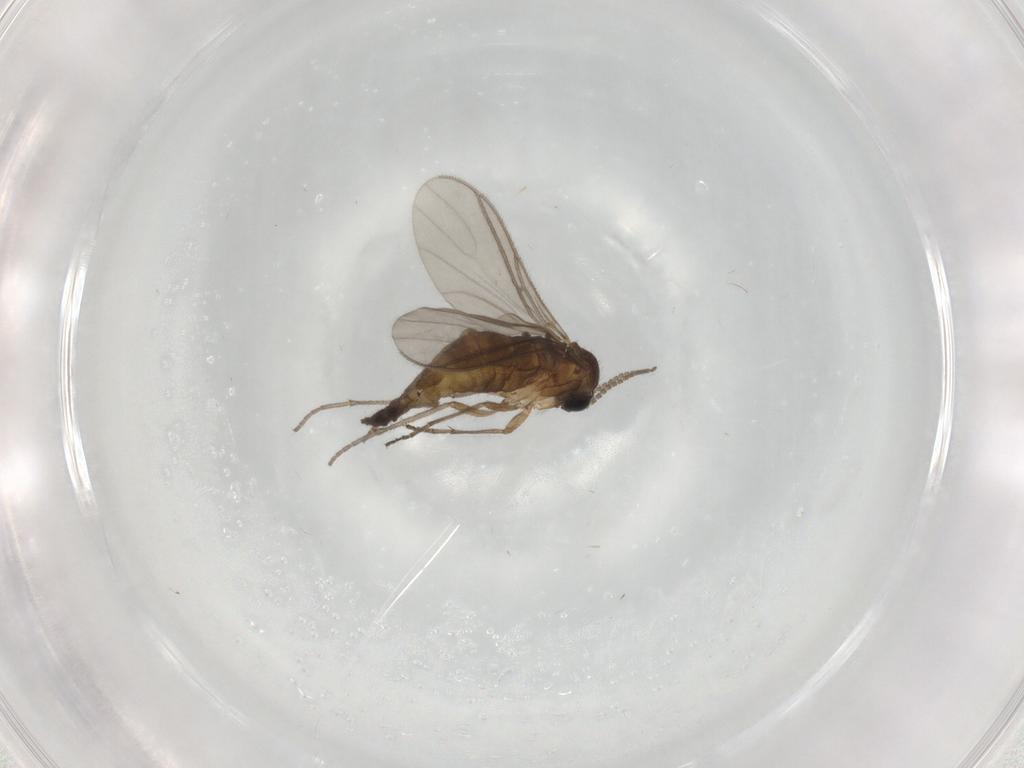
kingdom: Animalia
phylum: Arthropoda
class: Insecta
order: Diptera
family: Sciaridae
